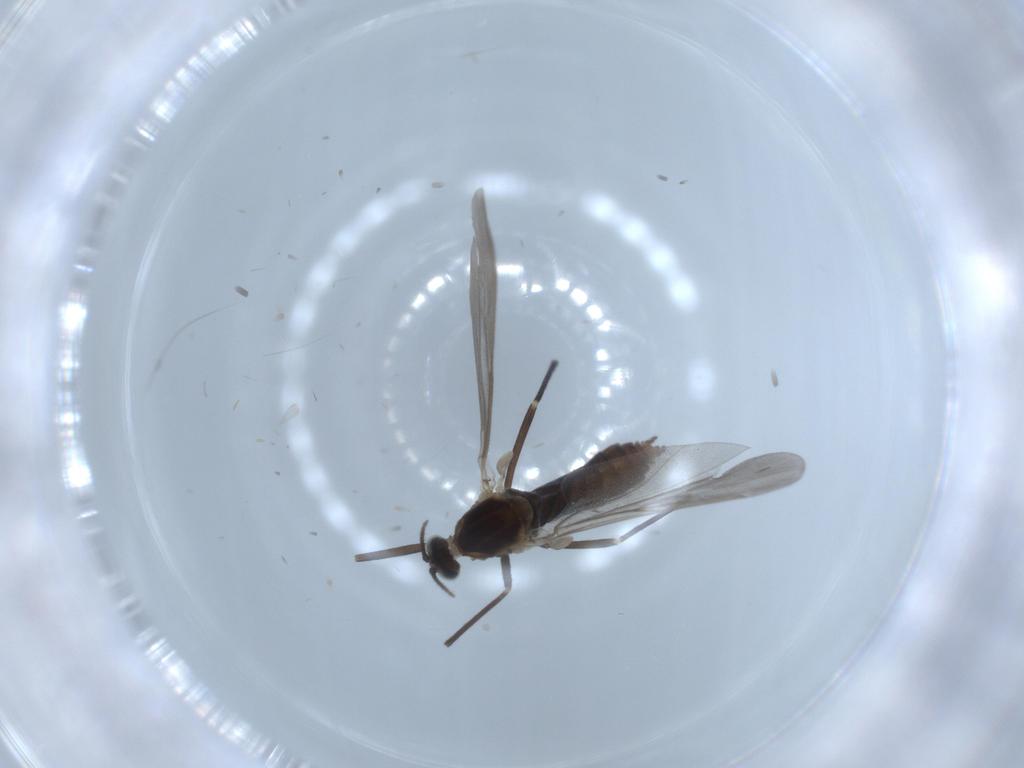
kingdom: Animalia
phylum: Arthropoda
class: Insecta
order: Diptera
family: Cecidomyiidae
